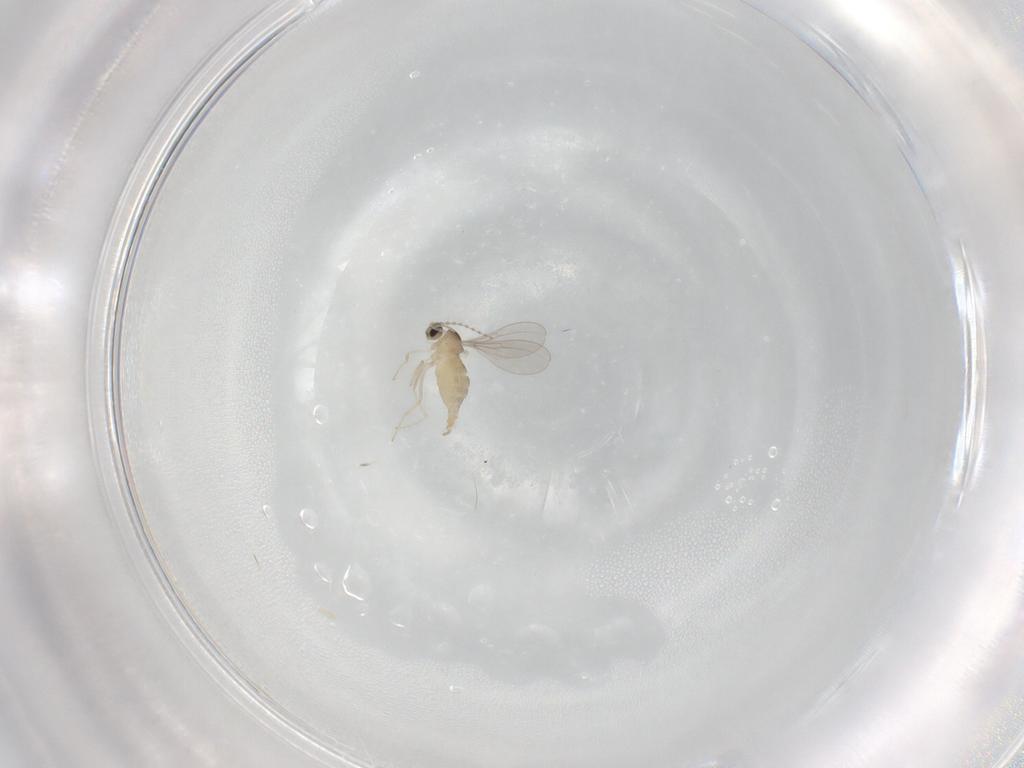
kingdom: Animalia
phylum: Arthropoda
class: Insecta
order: Diptera
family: Cecidomyiidae
